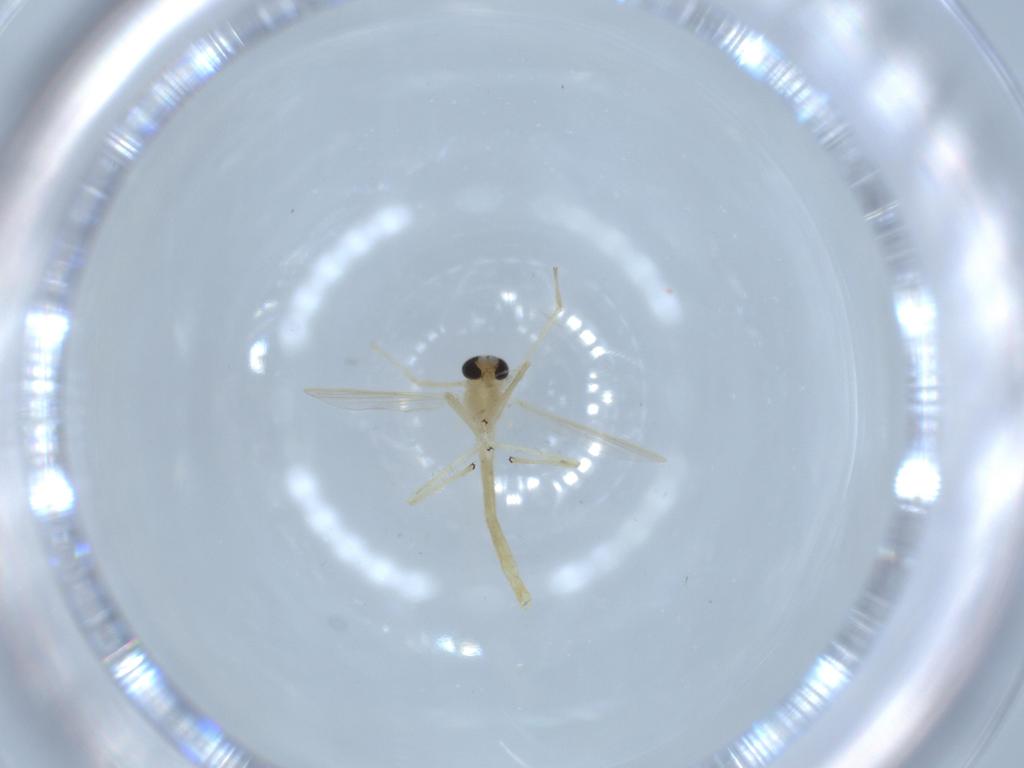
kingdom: Animalia
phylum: Arthropoda
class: Insecta
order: Diptera
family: Chironomidae
